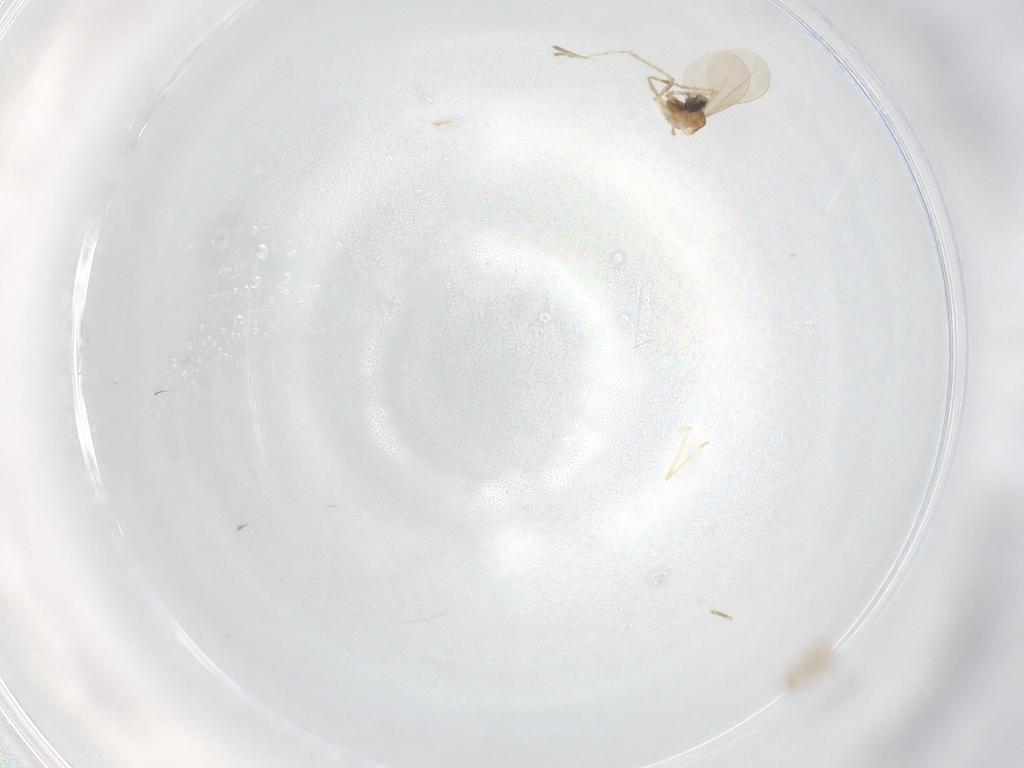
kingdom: Animalia
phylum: Arthropoda
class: Insecta
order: Diptera
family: Cecidomyiidae
